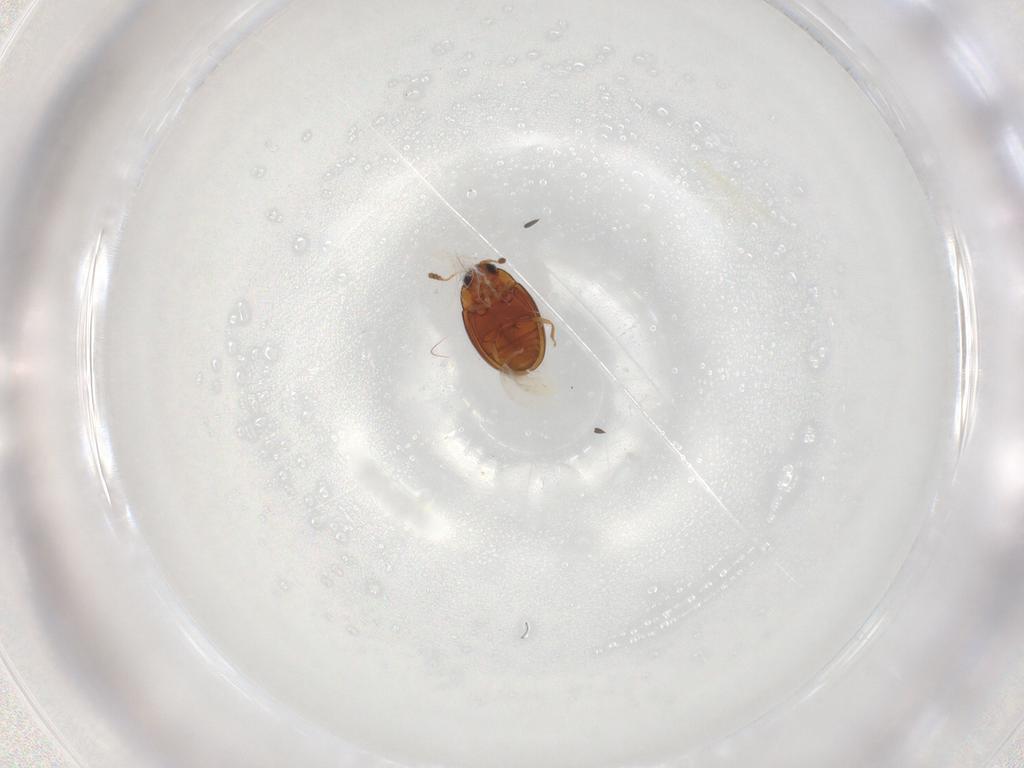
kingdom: Animalia
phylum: Arthropoda
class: Insecta
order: Coleoptera
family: Cryptophagidae
